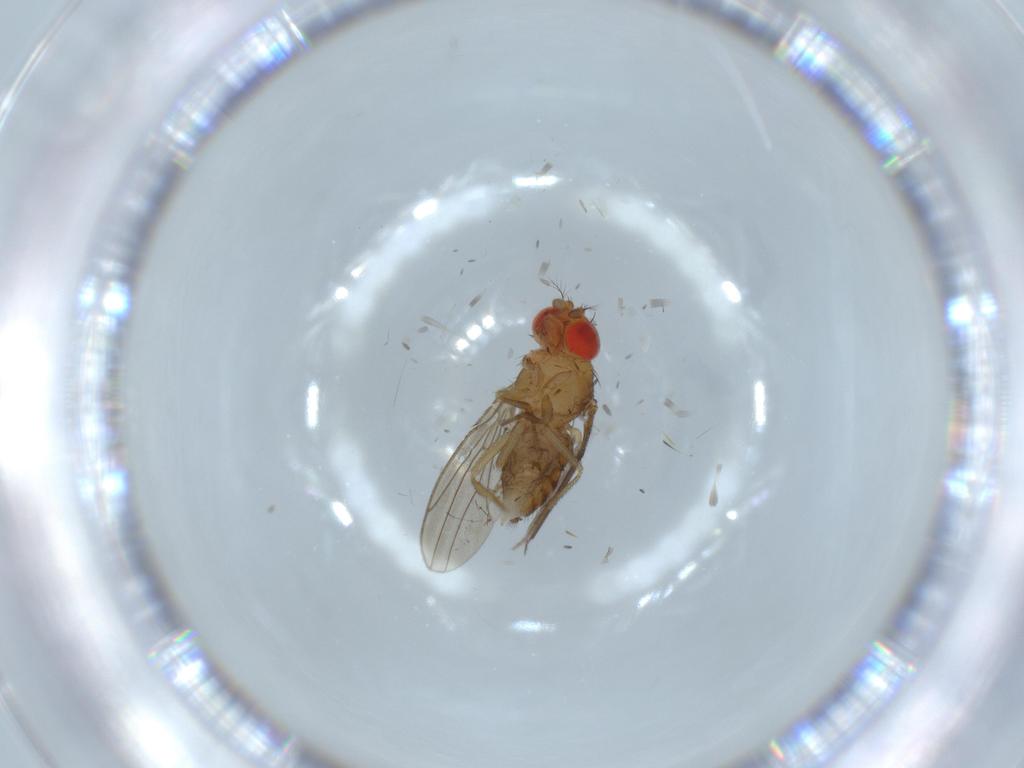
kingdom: Animalia
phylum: Arthropoda
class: Insecta
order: Diptera
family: Drosophilidae
